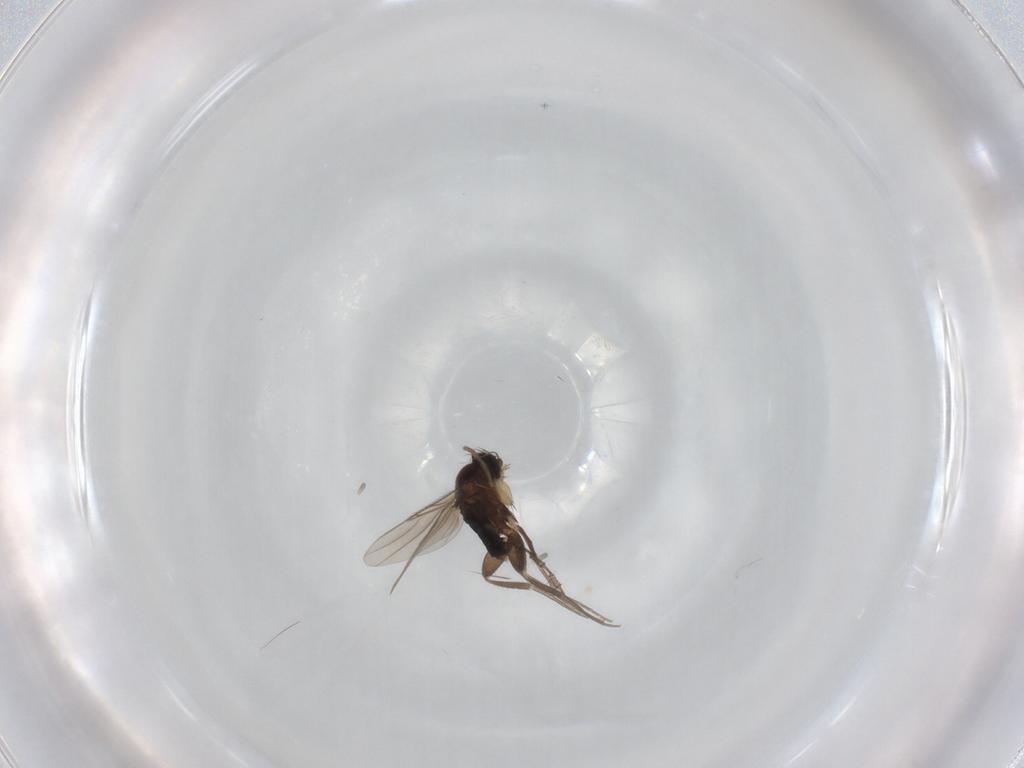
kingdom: Animalia
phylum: Arthropoda
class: Insecta
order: Diptera
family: Phoridae
